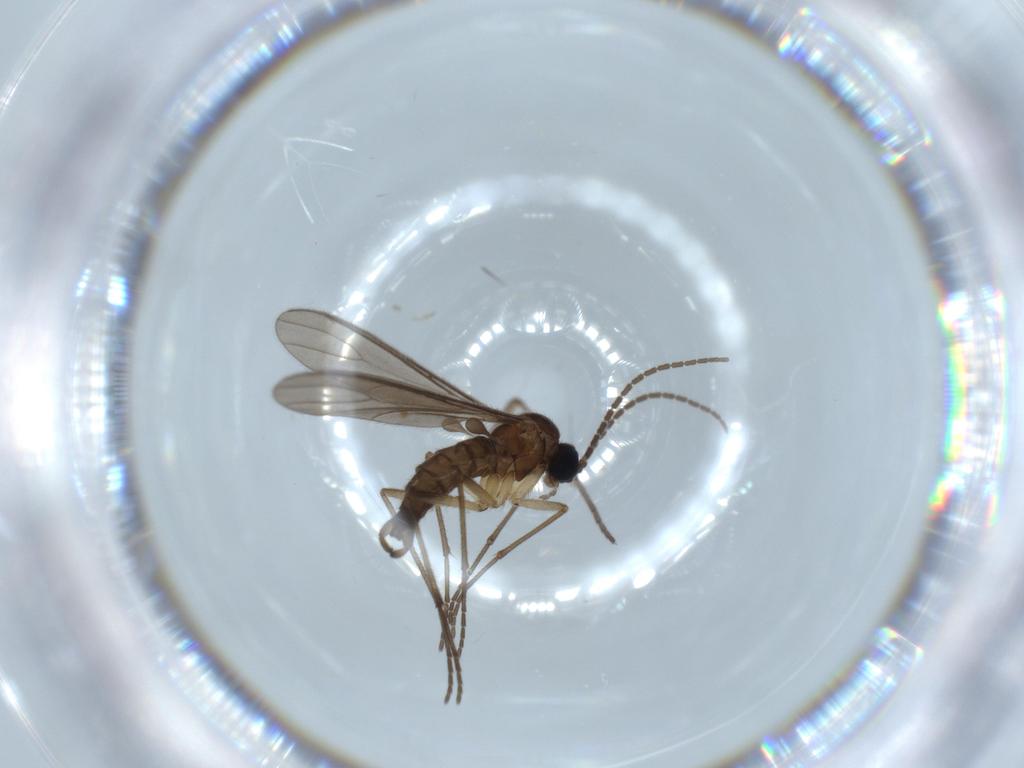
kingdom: Animalia
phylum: Arthropoda
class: Insecta
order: Diptera
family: Sciaridae
